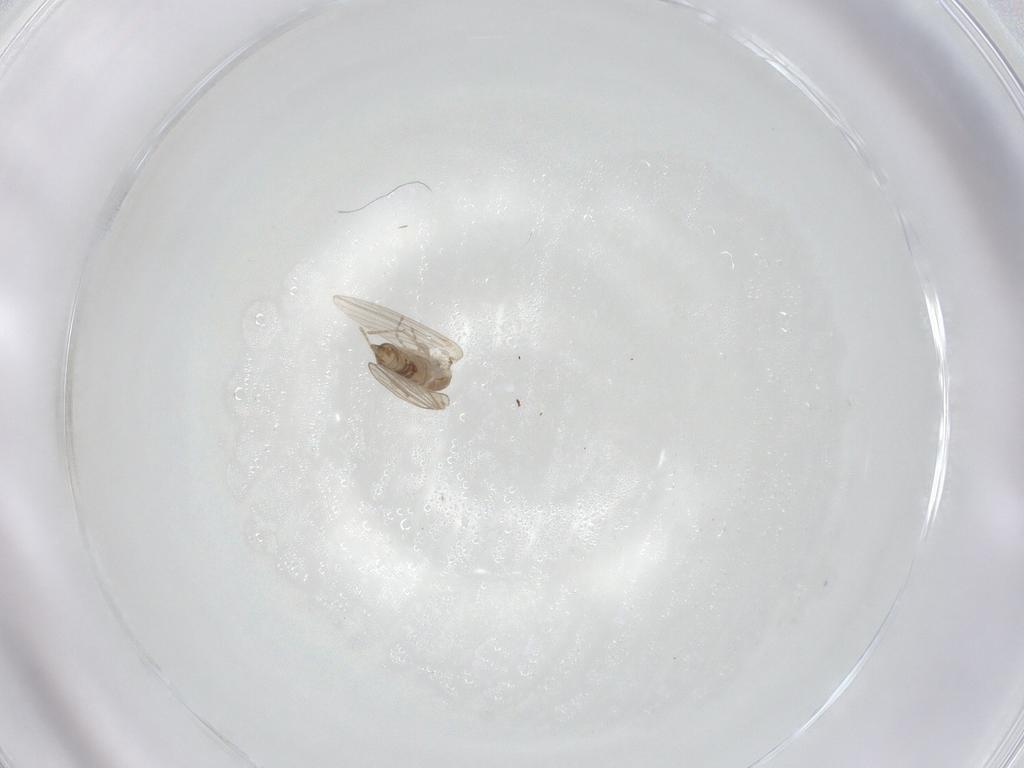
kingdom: Animalia
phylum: Arthropoda
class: Insecta
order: Diptera
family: Psychodidae
